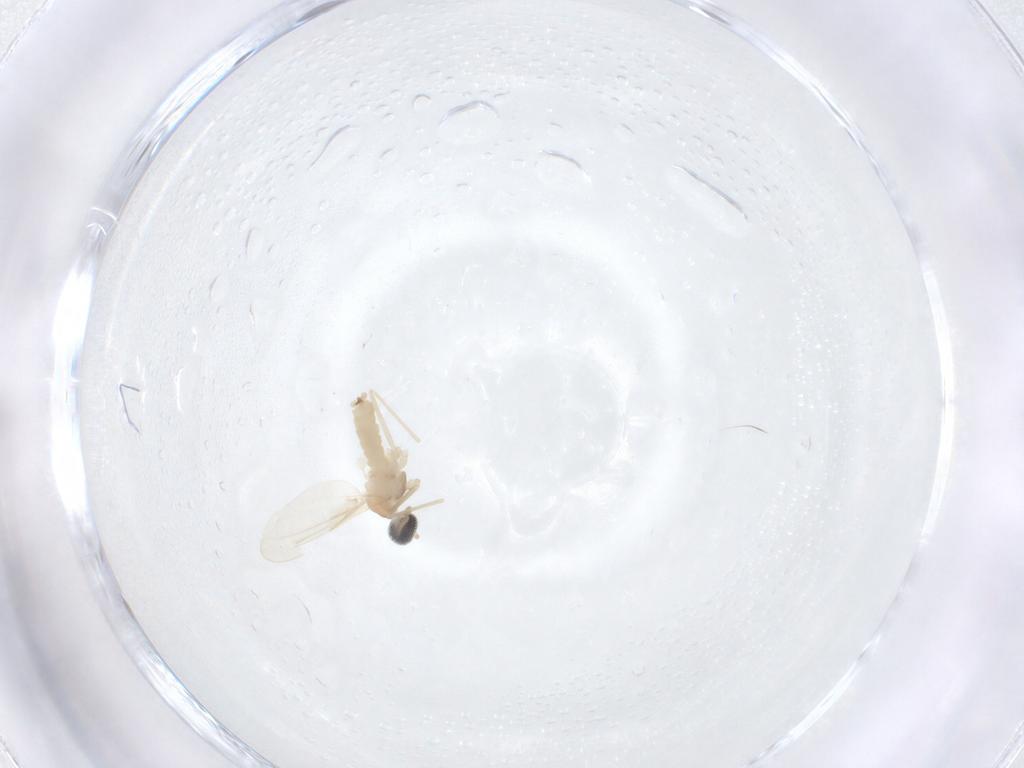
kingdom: Animalia
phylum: Arthropoda
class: Insecta
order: Diptera
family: Cecidomyiidae
